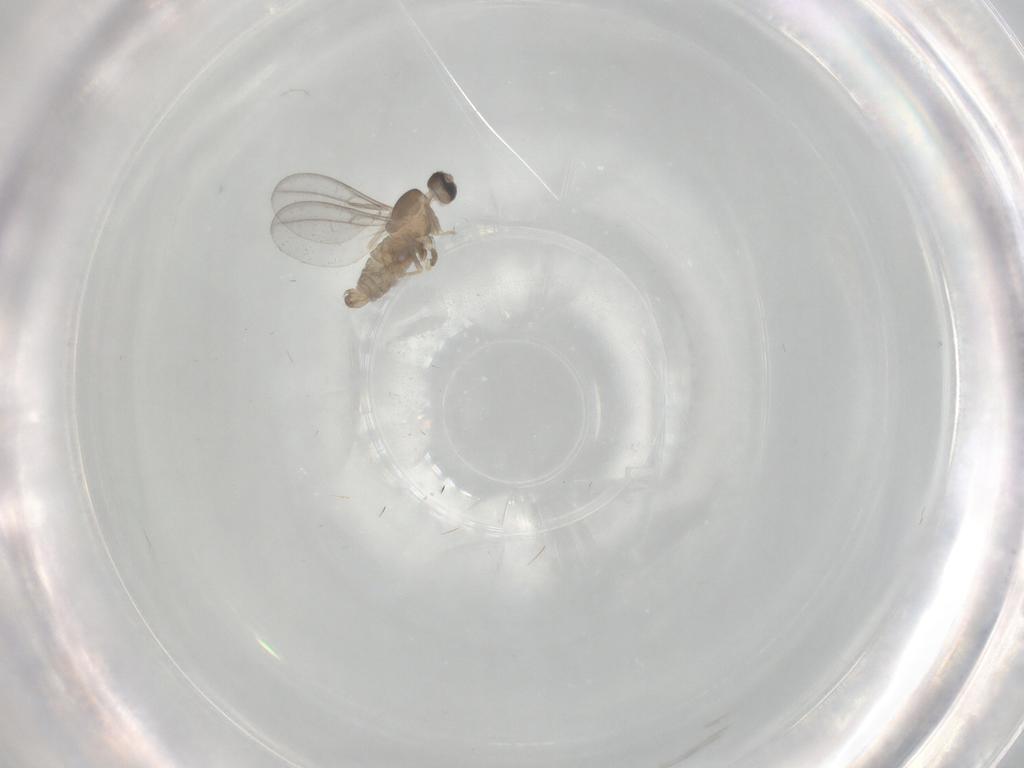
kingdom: Animalia
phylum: Arthropoda
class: Insecta
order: Diptera
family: Cecidomyiidae
